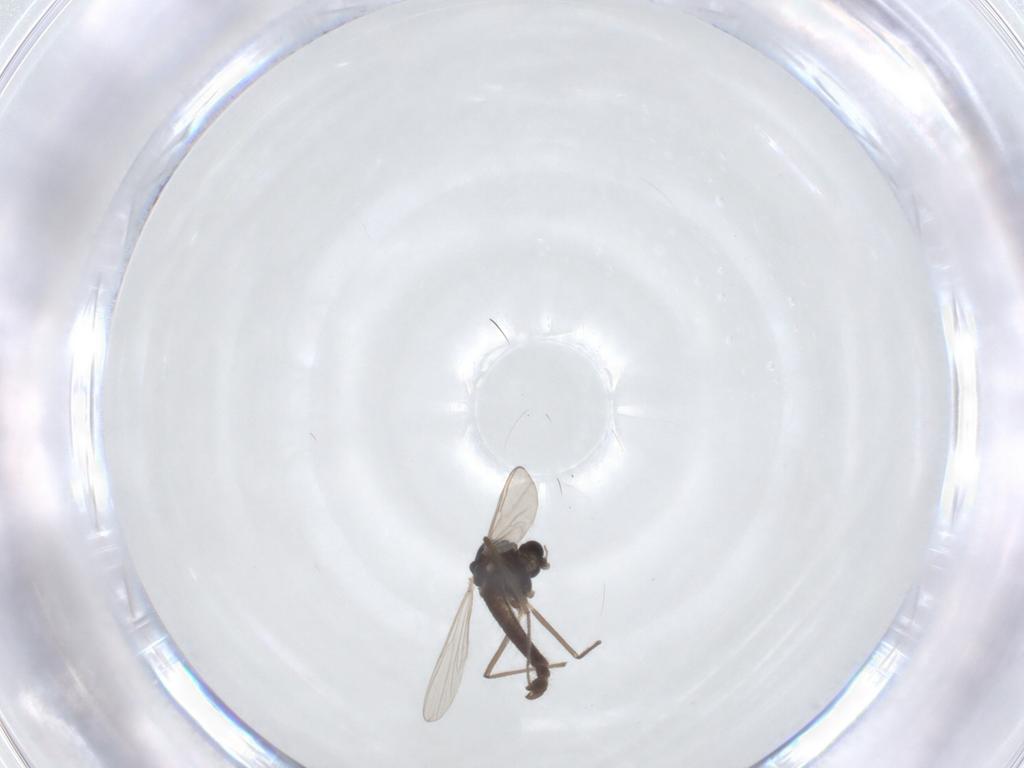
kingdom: Animalia
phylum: Arthropoda
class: Insecta
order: Diptera
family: Chironomidae
